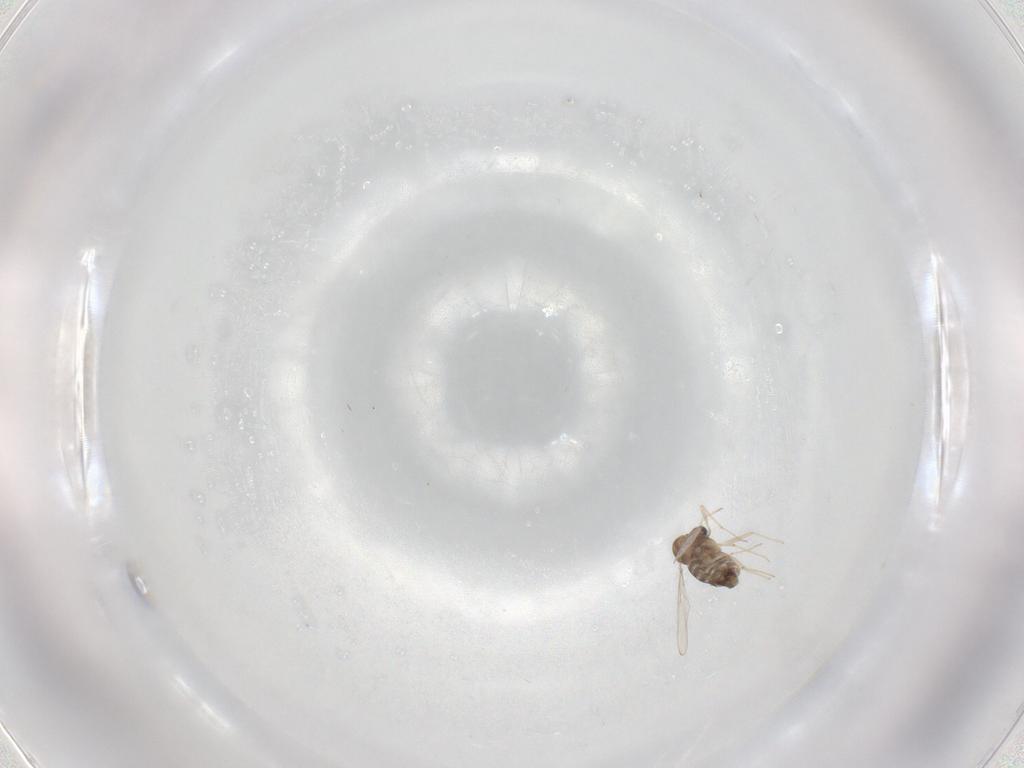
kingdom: Animalia
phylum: Arthropoda
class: Insecta
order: Diptera
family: Chironomidae
